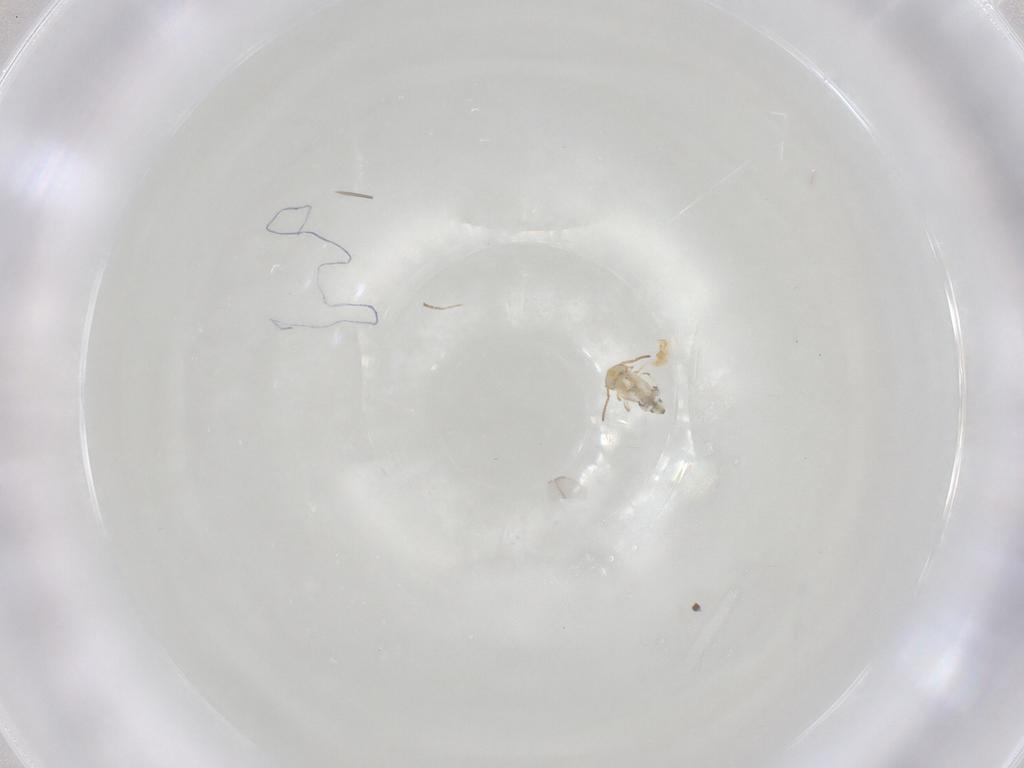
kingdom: Animalia
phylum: Arthropoda
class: Collembola
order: Symphypleona
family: Bourletiellidae
